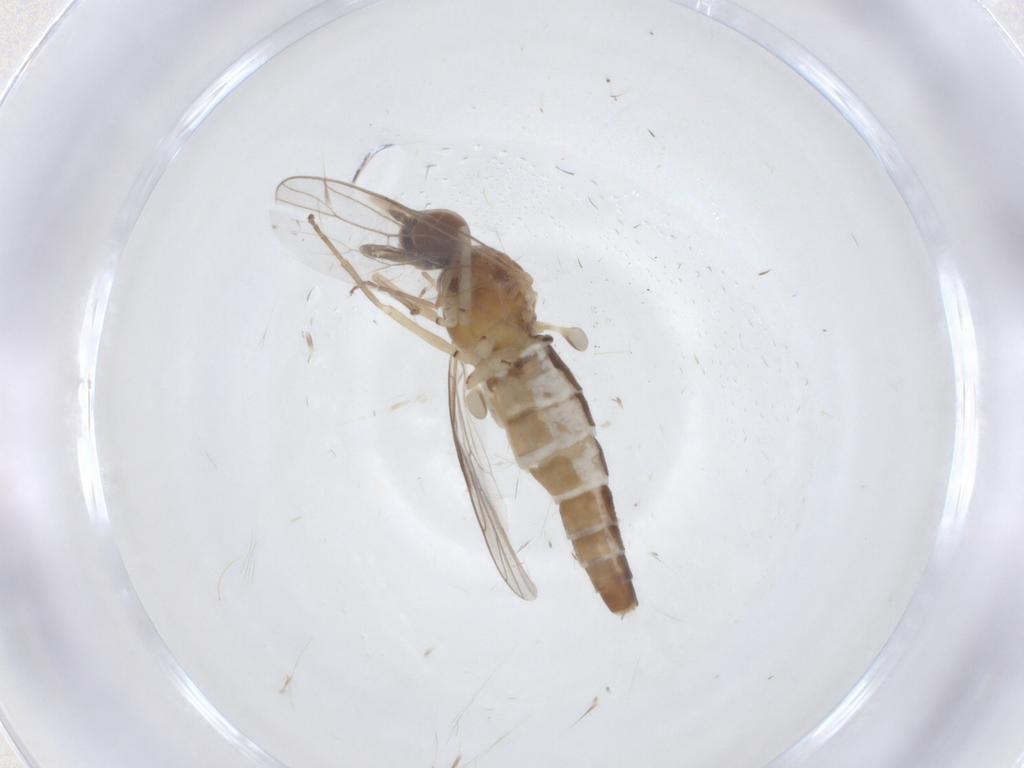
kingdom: Animalia
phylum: Arthropoda
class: Insecta
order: Diptera
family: Scenopinidae
